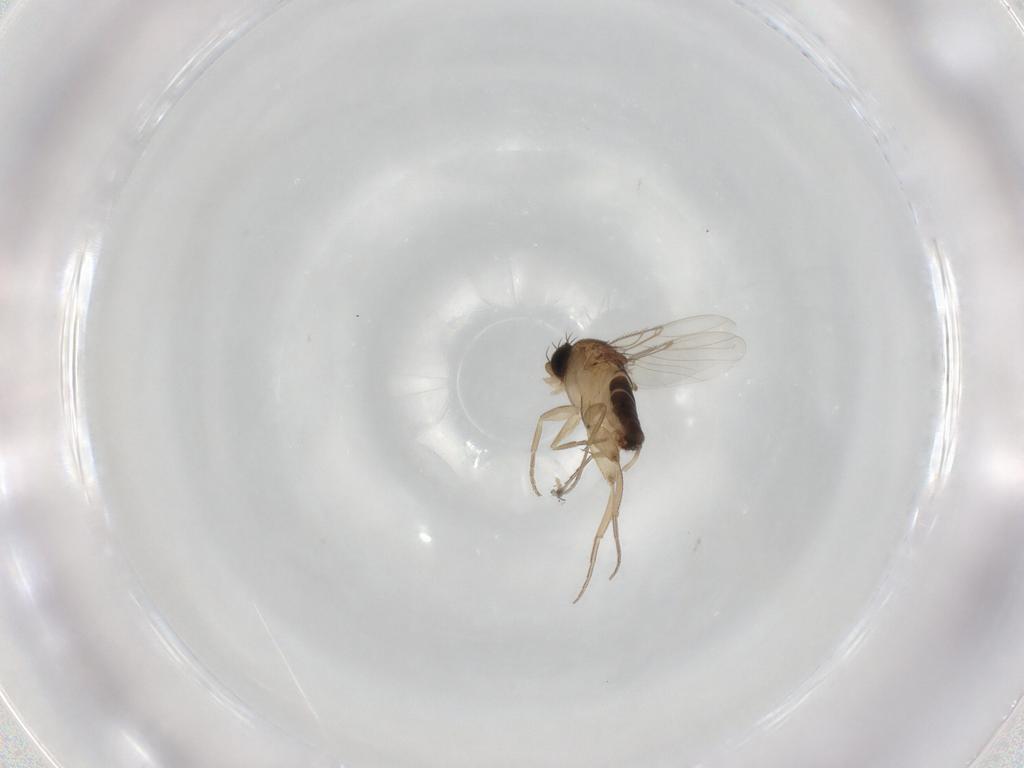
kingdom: Animalia
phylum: Arthropoda
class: Insecta
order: Diptera
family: Phoridae
